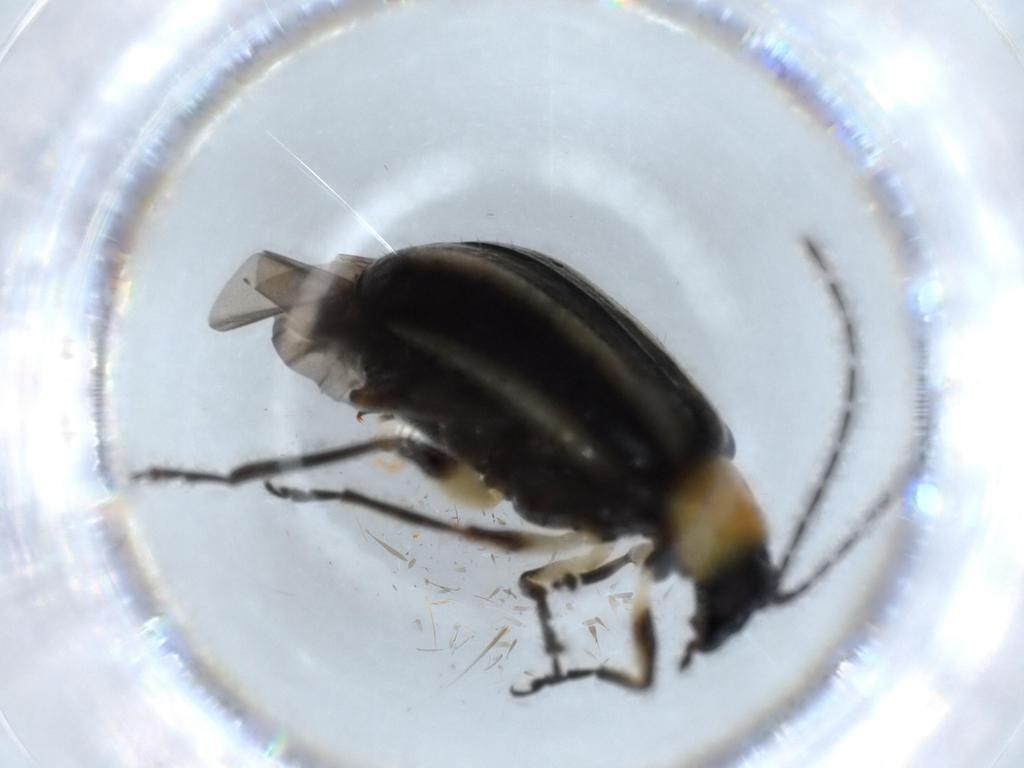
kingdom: Animalia
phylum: Arthropoda
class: Insecta
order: Coleoptera
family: Chrysomelidae
